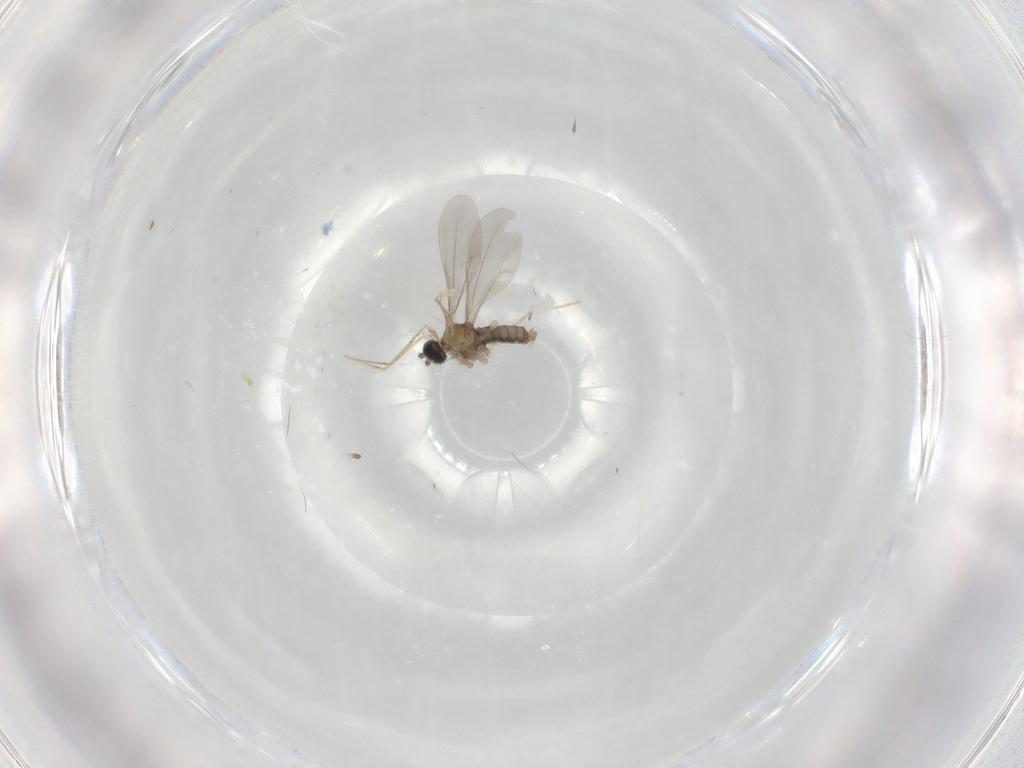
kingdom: Animalia
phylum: Arthropoda
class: Insecta
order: Diptera
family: Cecidomyiidae
